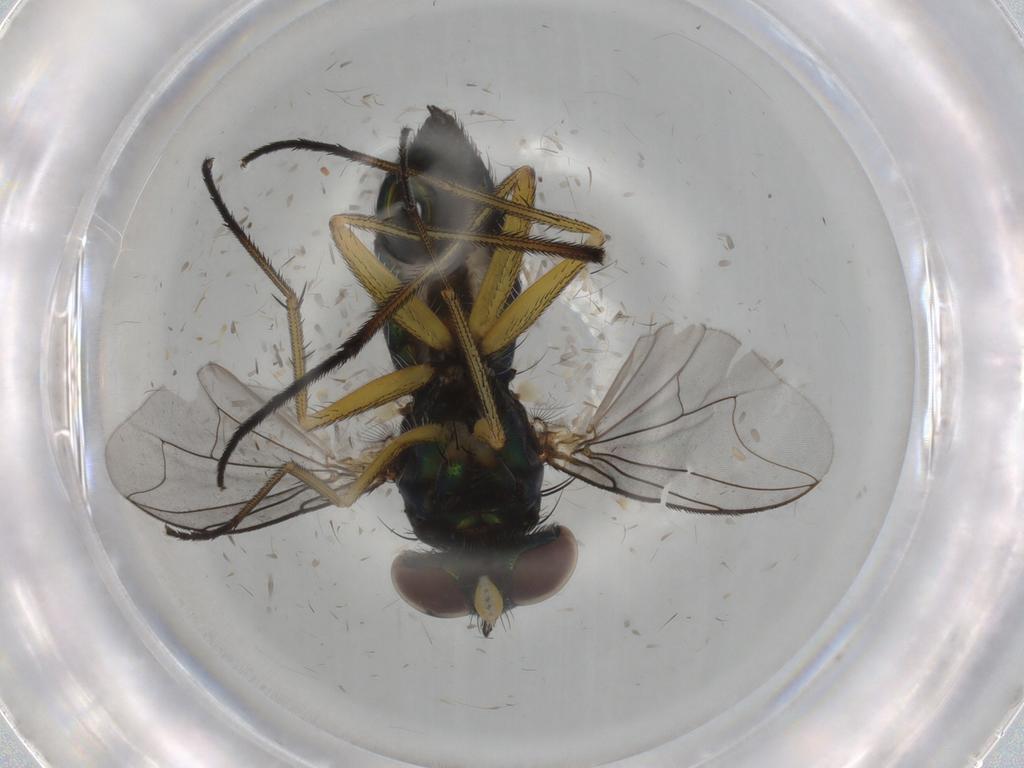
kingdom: Animalia
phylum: Arthropoda
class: Insecta
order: Diptera
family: Dolichopodidae
